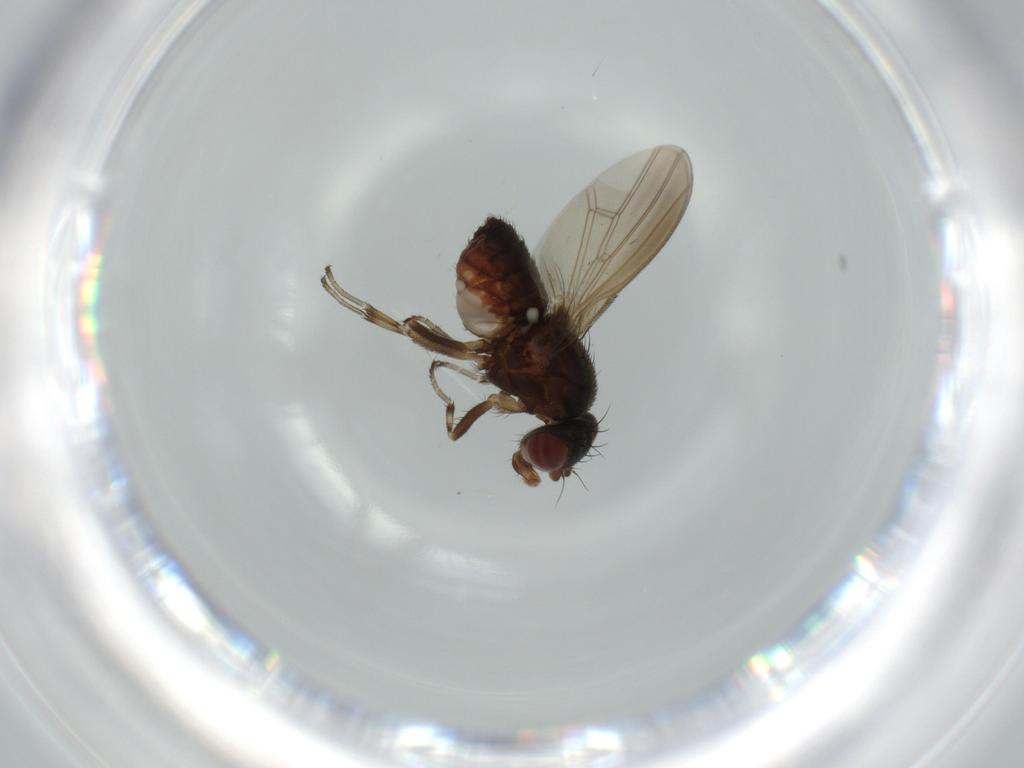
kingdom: Animalia
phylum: Arthropoda
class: Insecta
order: Diptera
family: Heleomyzidae
